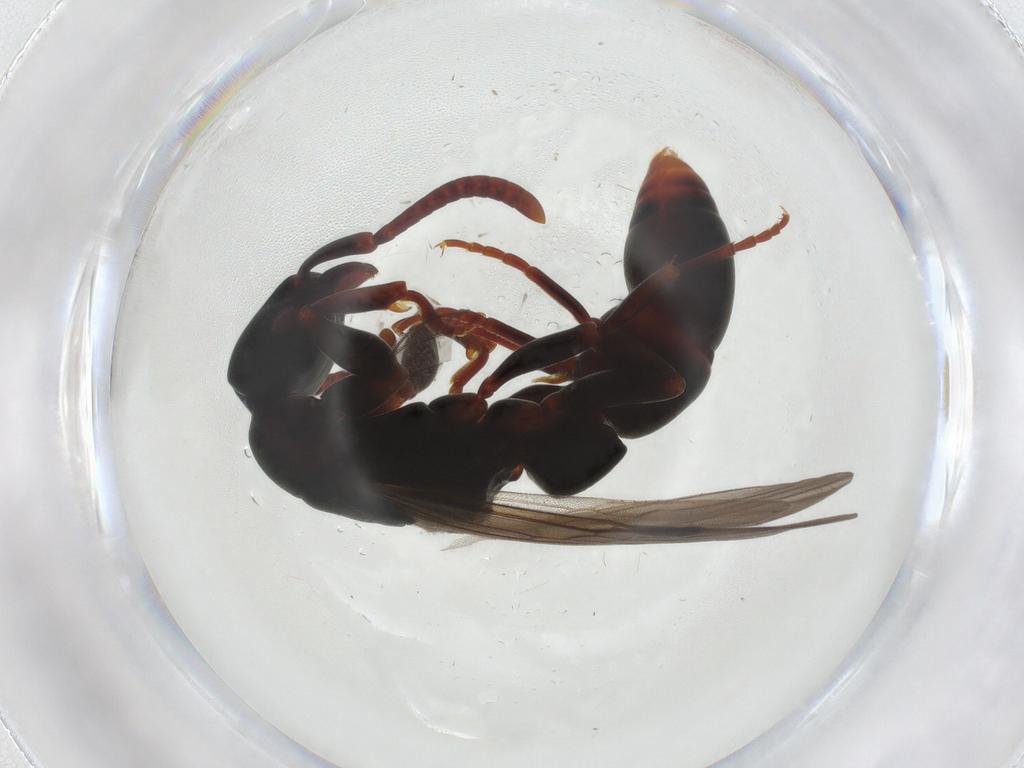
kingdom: Animalia
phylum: Arthropoda
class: Insecta
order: Hymenoptera
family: Formicidae
